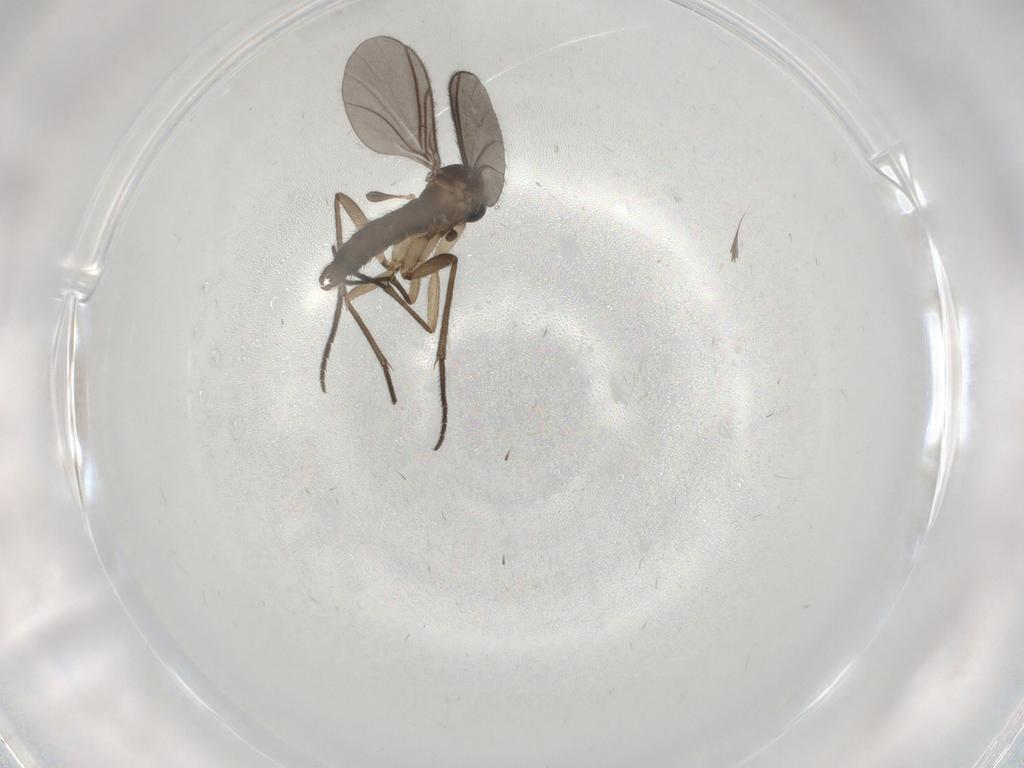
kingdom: Animalia
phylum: Arthropoda
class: Insecta
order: Diptera
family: Sciaridae
